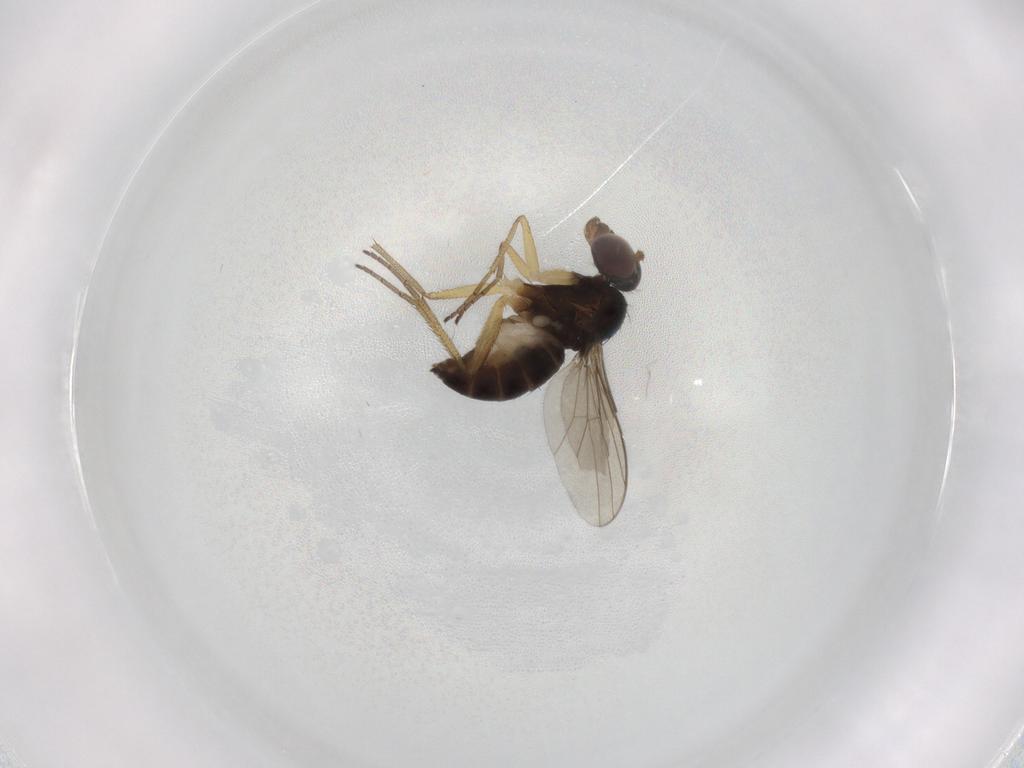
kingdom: Animalia
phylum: Arthropoda
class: Insecta
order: Diptera
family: Dolichopodidae
